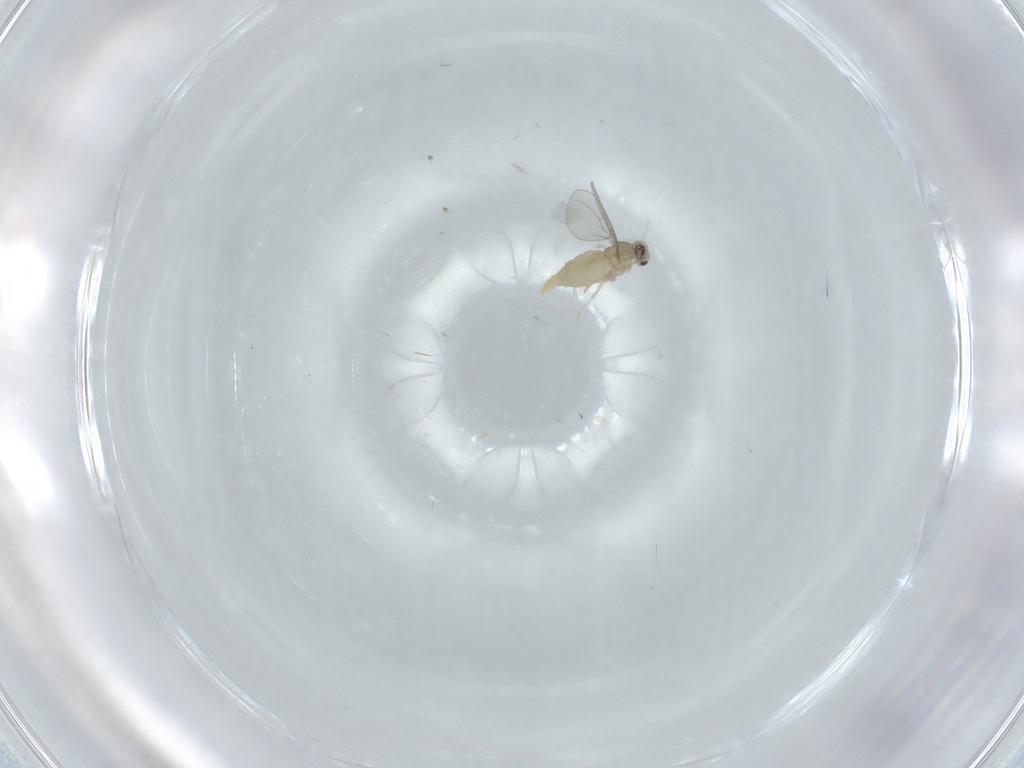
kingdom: Animalia
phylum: Arthropoda
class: Insecta
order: Diptera
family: Cecidomyiidae
